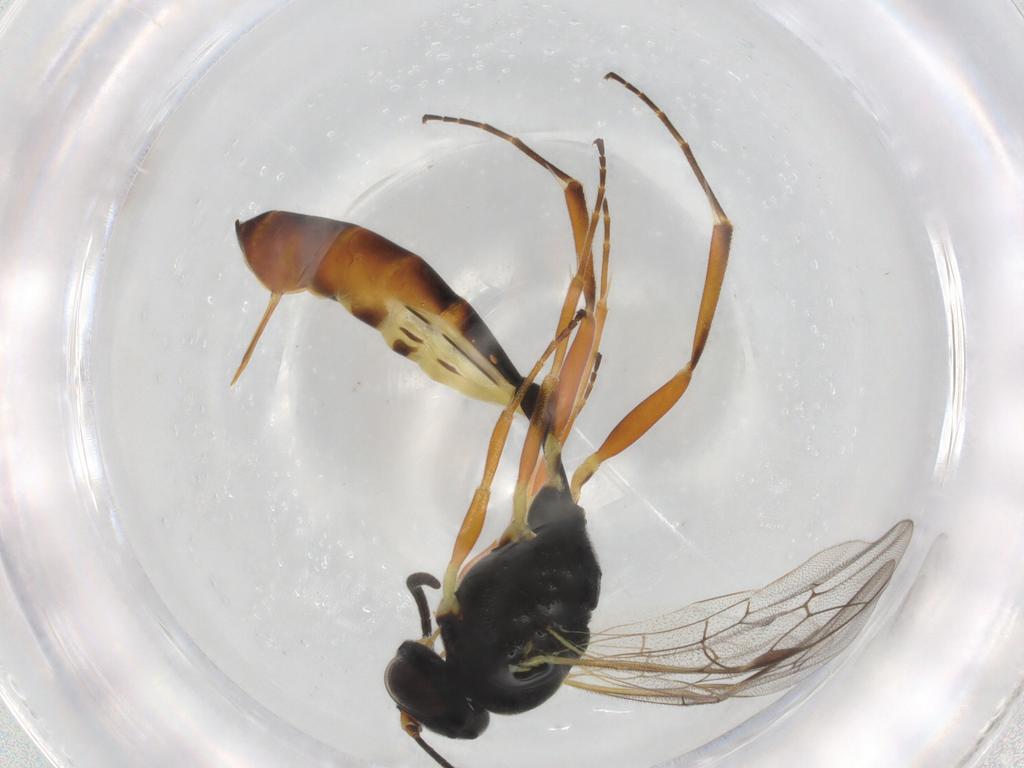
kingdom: Animalia
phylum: Arthropoda
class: Insecta
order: Hymenoptera
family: Ichneumonidae
